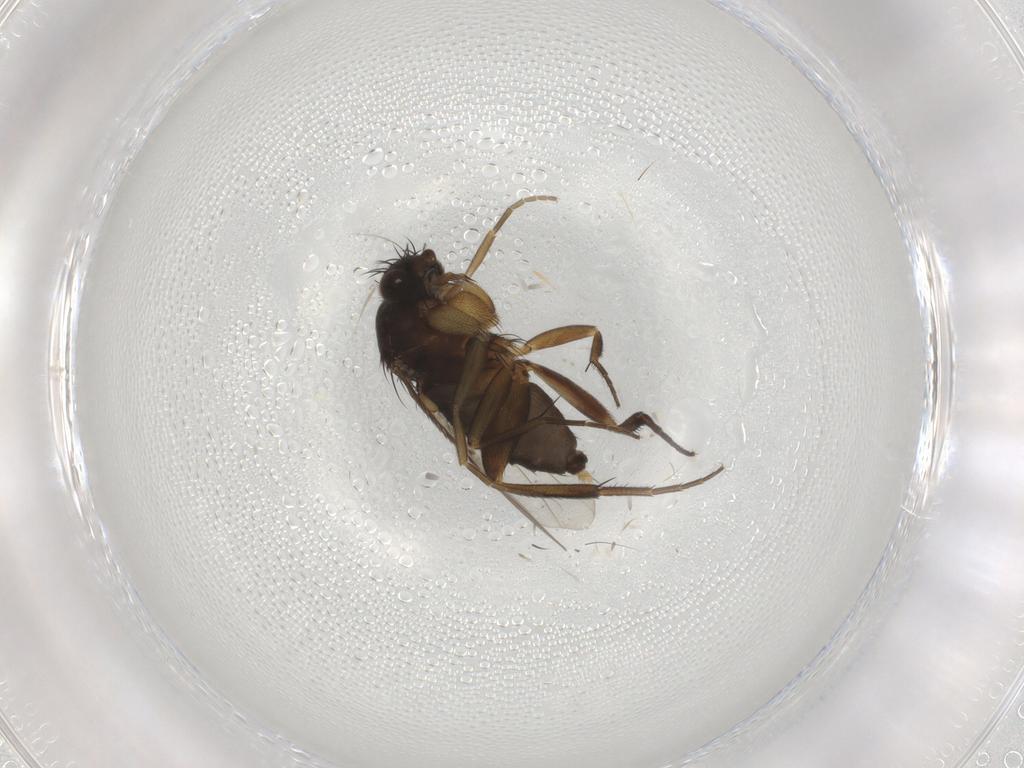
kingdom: Animalia
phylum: Arthropoda
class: Insecta
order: Diptera
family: Phoridae
